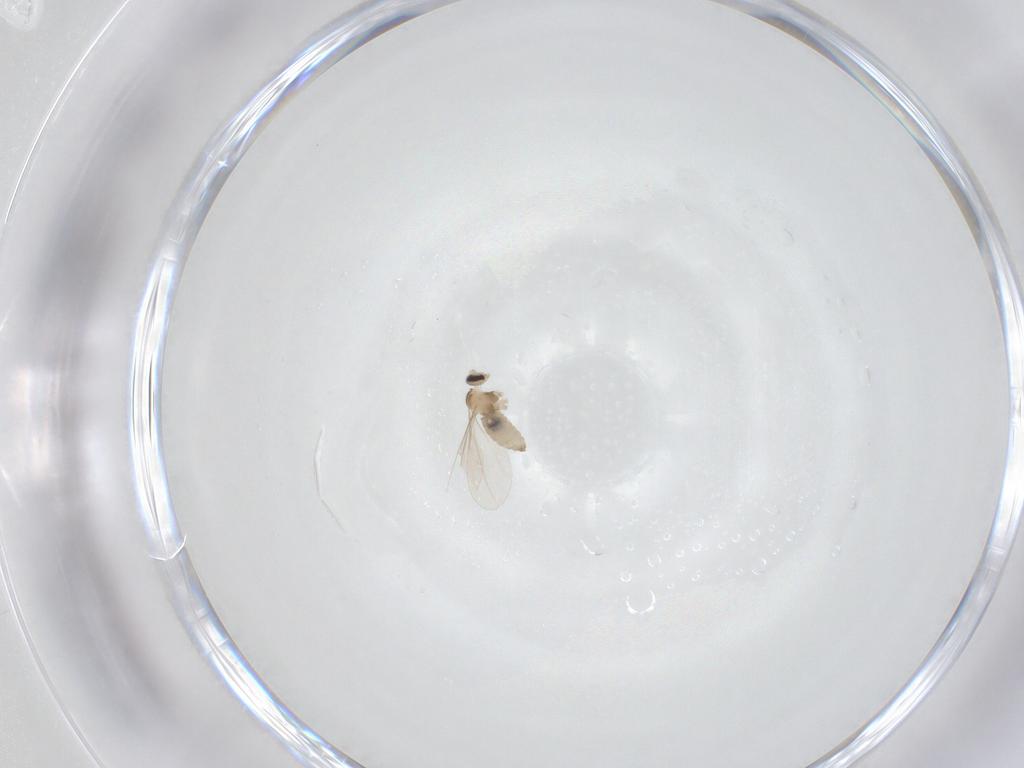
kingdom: Animalia
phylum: Arthropoda
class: Insecta
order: Diptera
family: Cecidomyiidae
